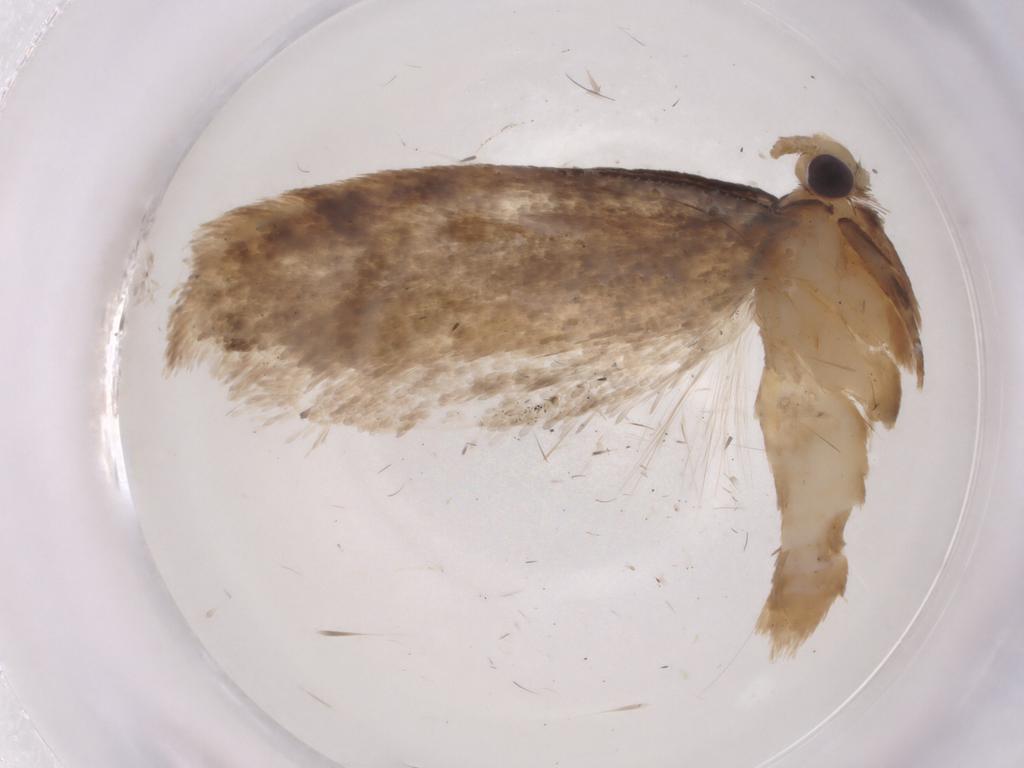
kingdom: Animalia
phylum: Arthropoda
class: Insecta
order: Lepidoptera
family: Tineidae
